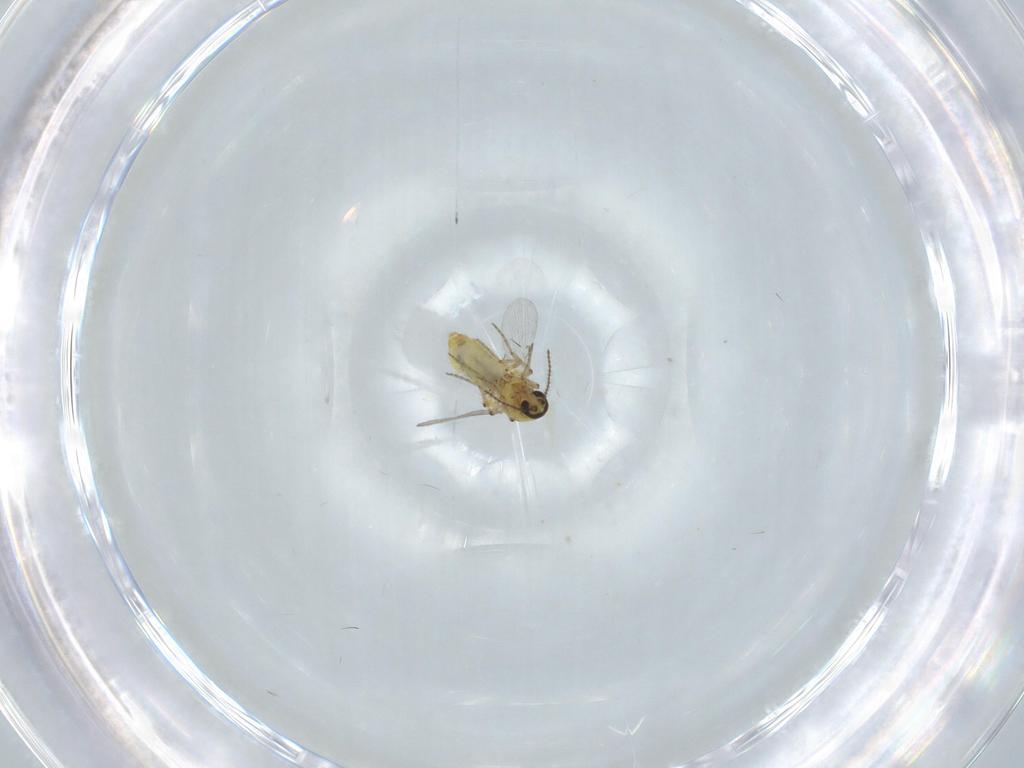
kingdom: Animalia
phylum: Arthropoda
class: Insecta
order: Diptera
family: Ceratopogonidae
